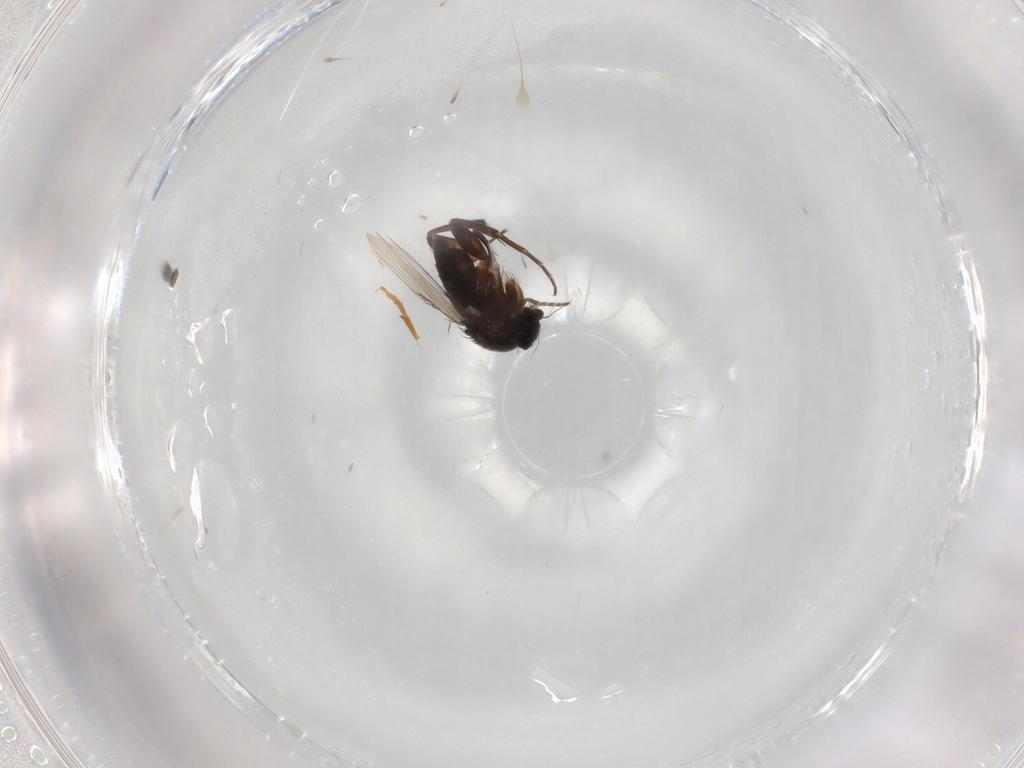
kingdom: Animalia
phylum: Arthropoda
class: Insecta
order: Diptera
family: Phoridae
